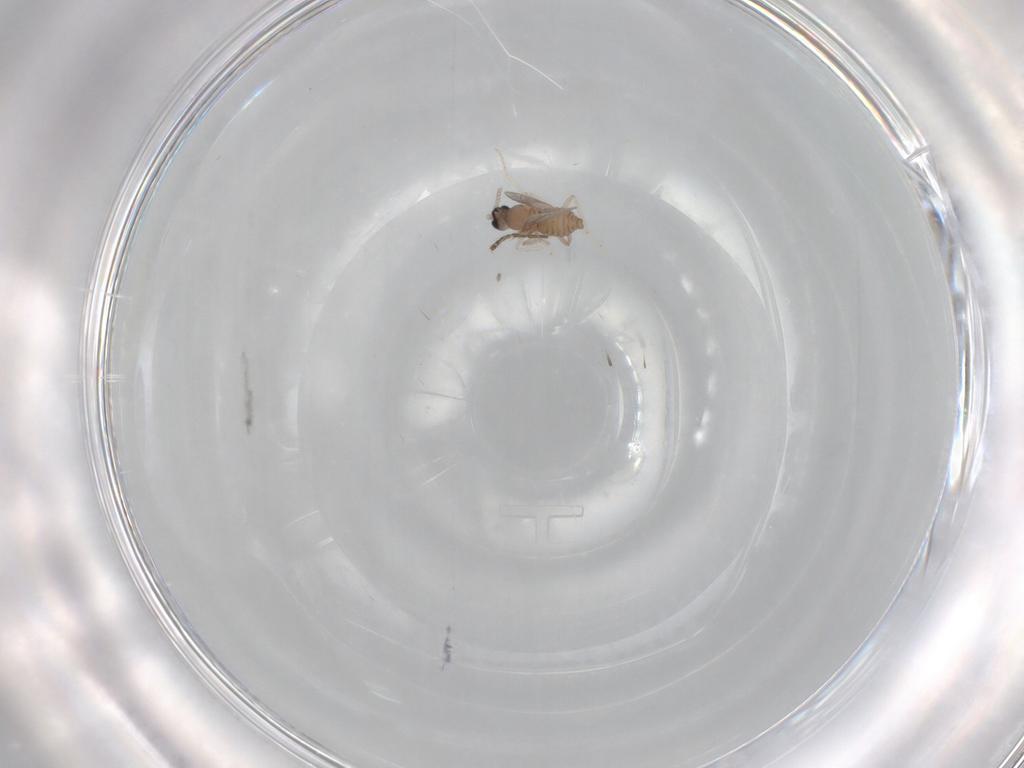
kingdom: Animalia
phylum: Arthropoda
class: Insecta
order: Diptera
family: Cecidomyiidae
